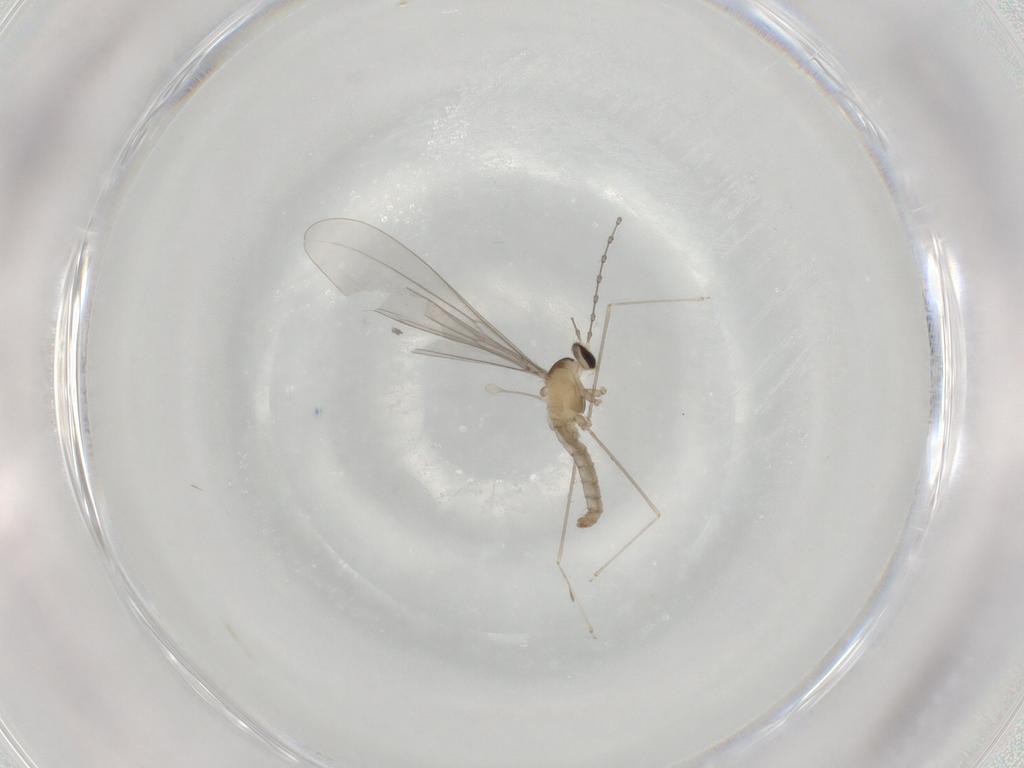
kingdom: Animalia
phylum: Arthropoda
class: Insecta
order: Diptera
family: Cecidomyiidae
